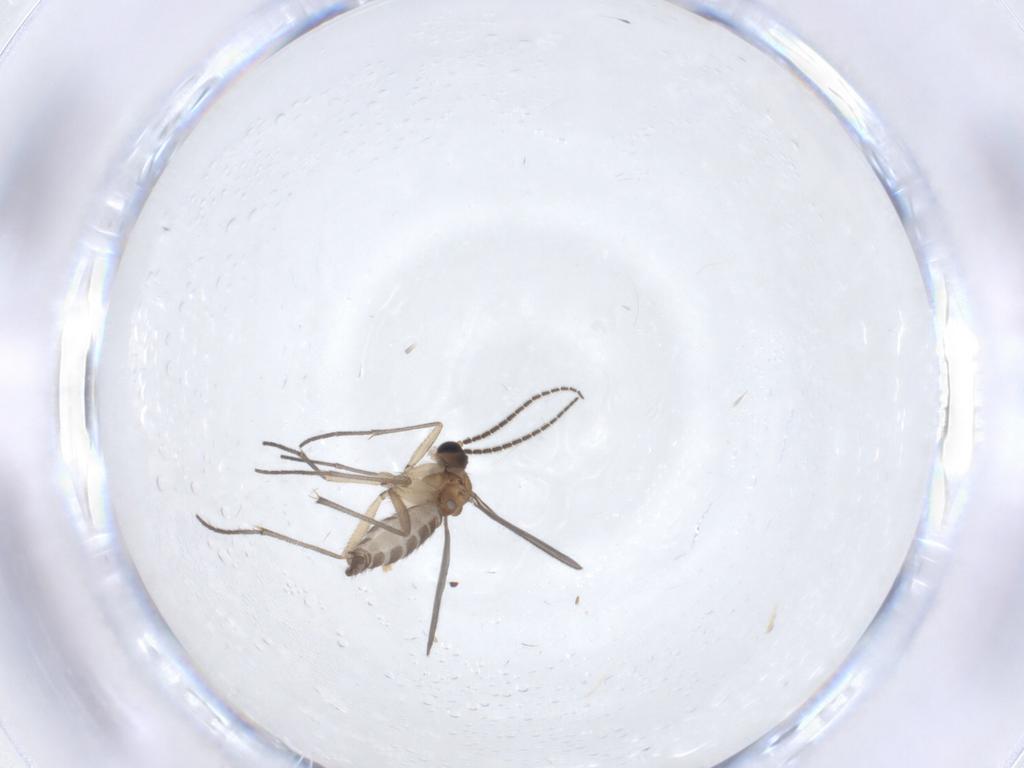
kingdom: Animalia
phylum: Arthropoda
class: Insecta
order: Diptera
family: Sciaridae
